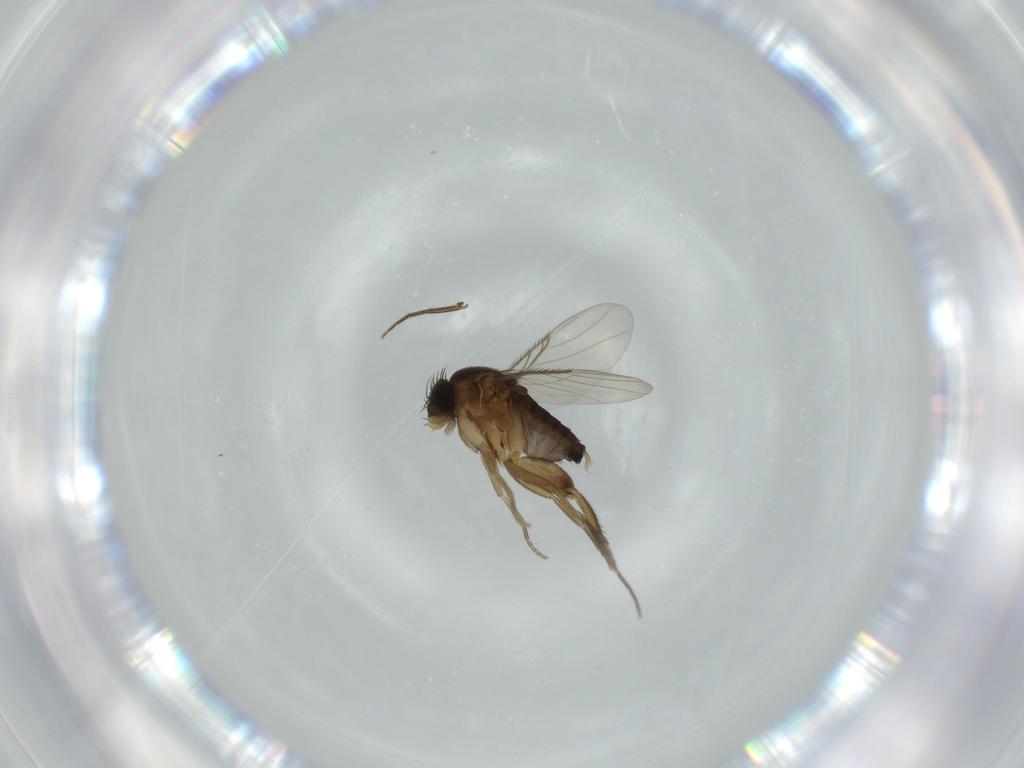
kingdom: Animalia
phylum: Arthropoda
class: Insecta
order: Diptera
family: Phoridae
